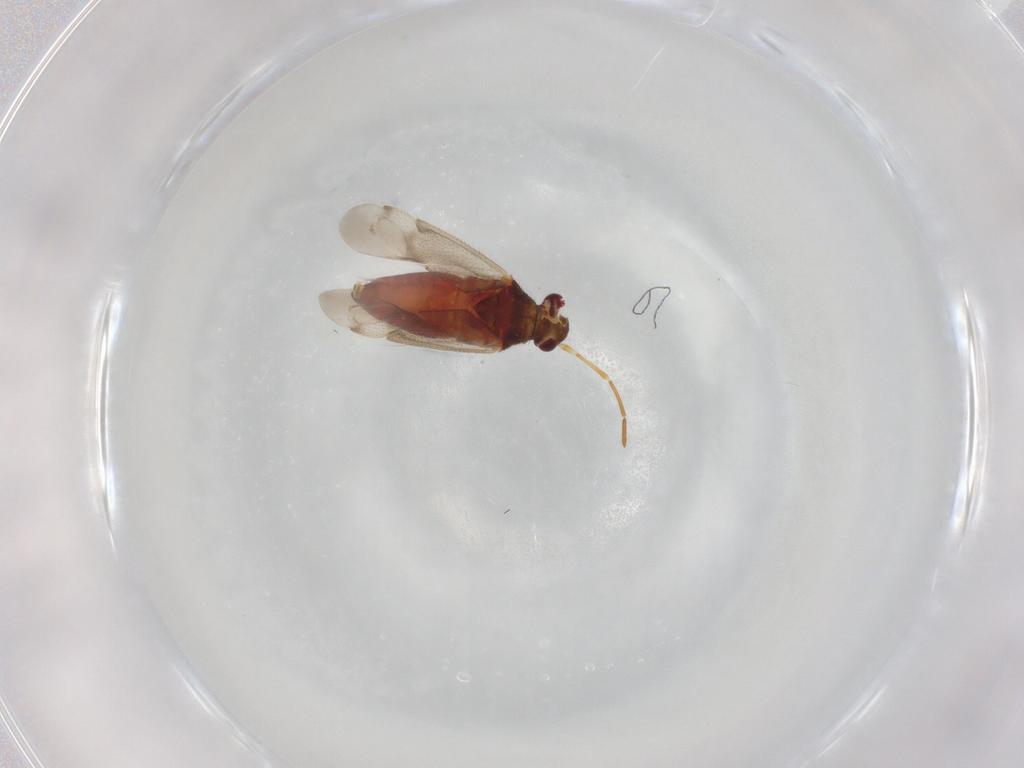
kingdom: Animalia
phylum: Arthropoda
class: Insecta
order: Hemiptera
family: Miridae
